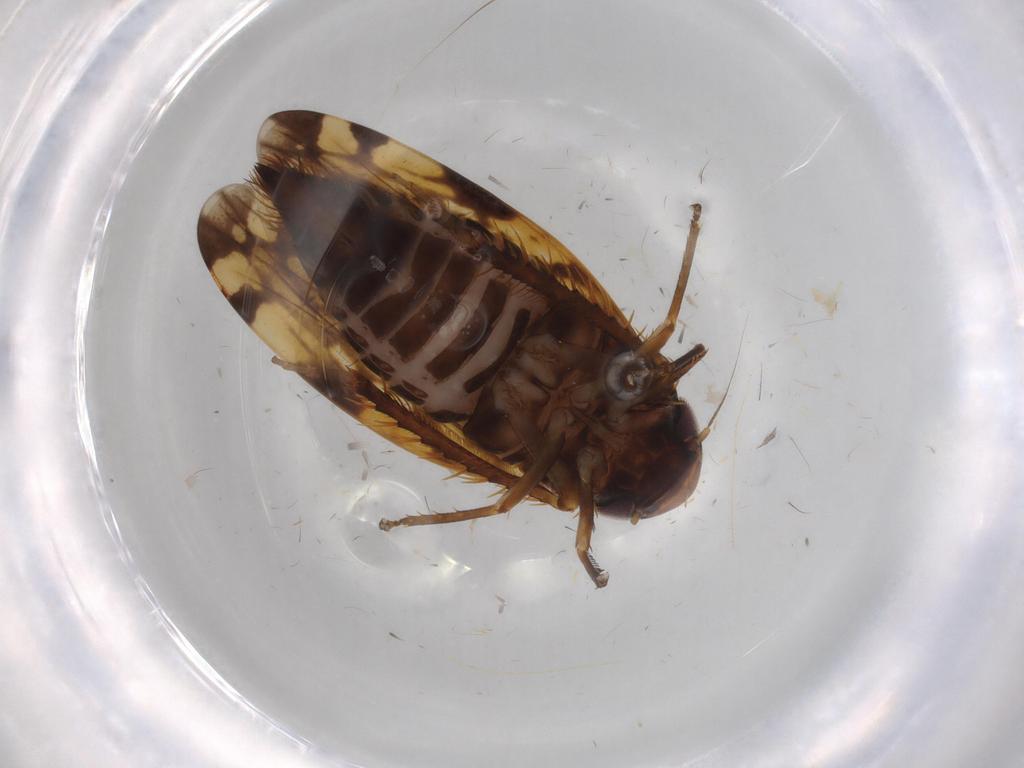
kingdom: Animalia
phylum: Arthropoda
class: Insecta
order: Hemiptera
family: Cicadellidae
